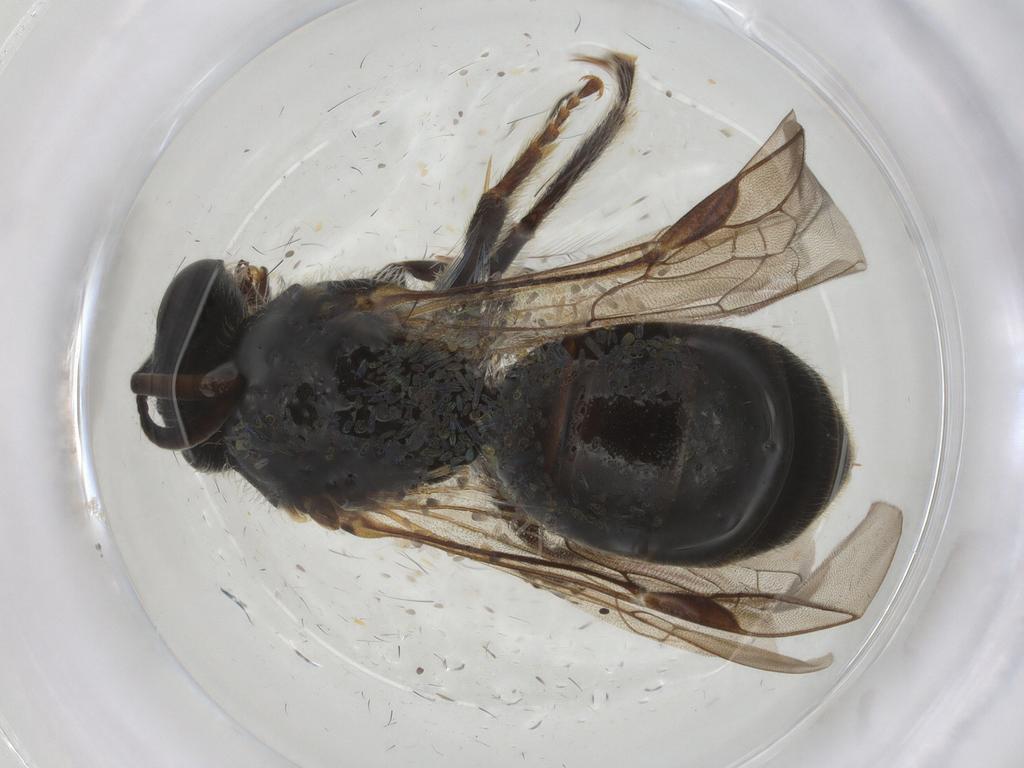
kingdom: Animalia
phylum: Arthropoda
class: Insecta
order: Hymenoptera
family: Halictidae
